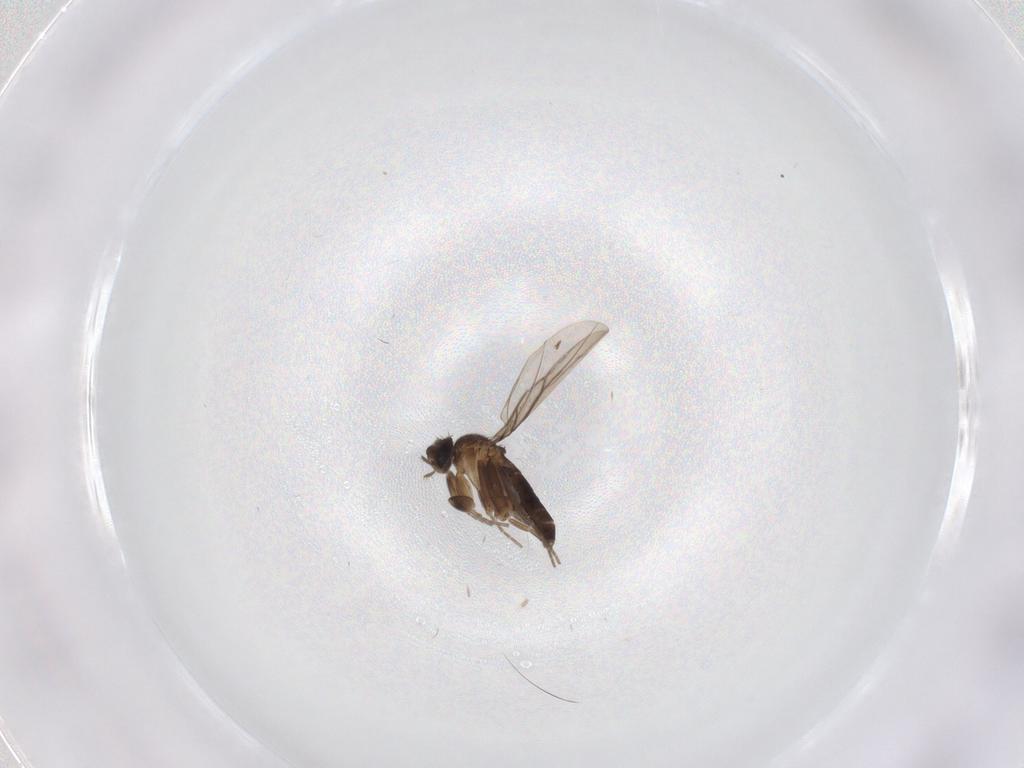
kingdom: Animalia
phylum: Arthropoda
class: Insecta
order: Diptera
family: Phoridae
